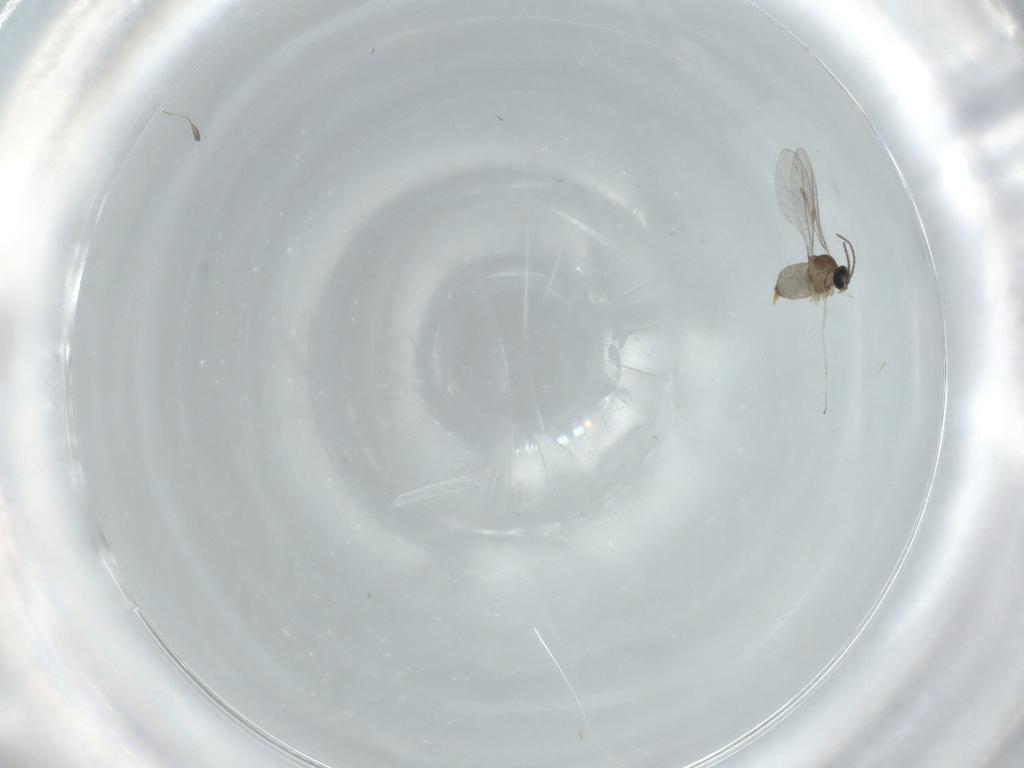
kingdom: Animalia
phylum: Arthropoda
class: Insecta
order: Diptera
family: Cecidomyiidae
